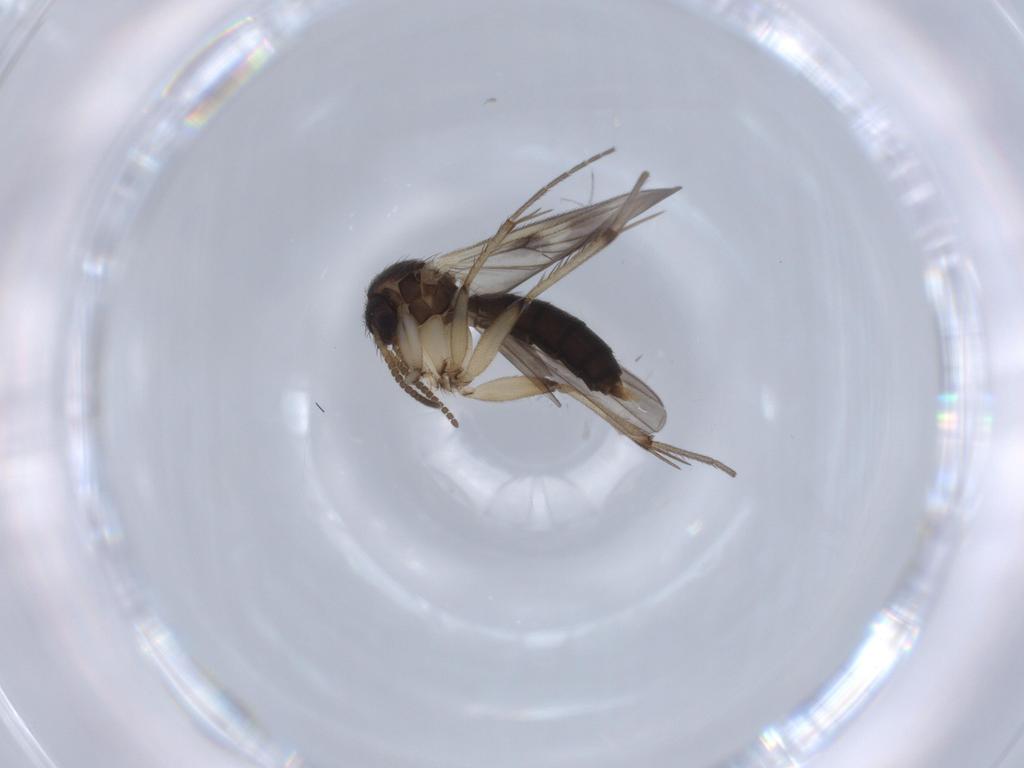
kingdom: Animalia
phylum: Arthropoda
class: Insecta
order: Diptera
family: Mycetophilidae
